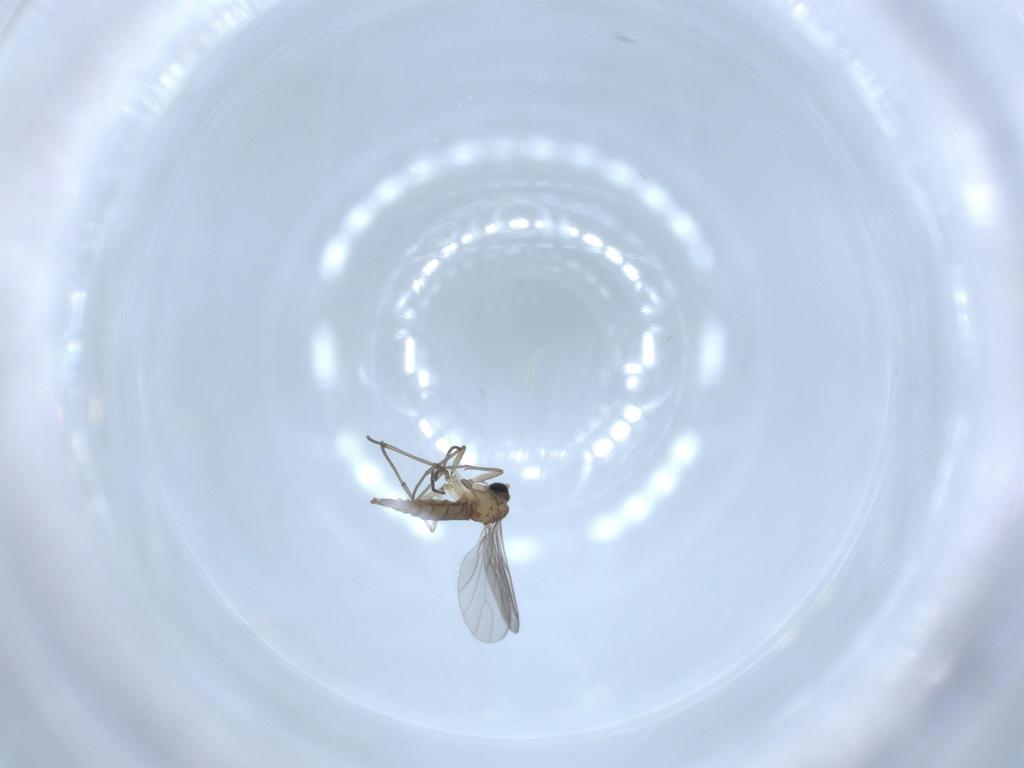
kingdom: Animalia
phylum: Arthropoda
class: Insecta
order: Diptera
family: Sciaridae
